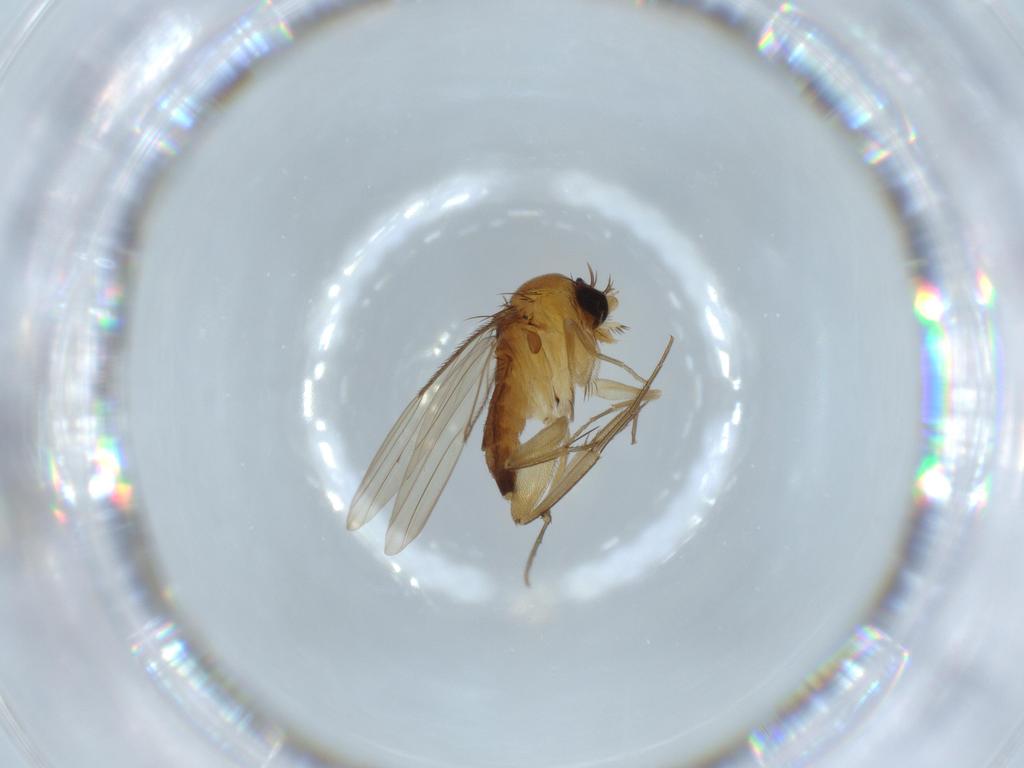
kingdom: Animalia
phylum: Arthropoda
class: Insecta
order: Diptera
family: Phoridae
